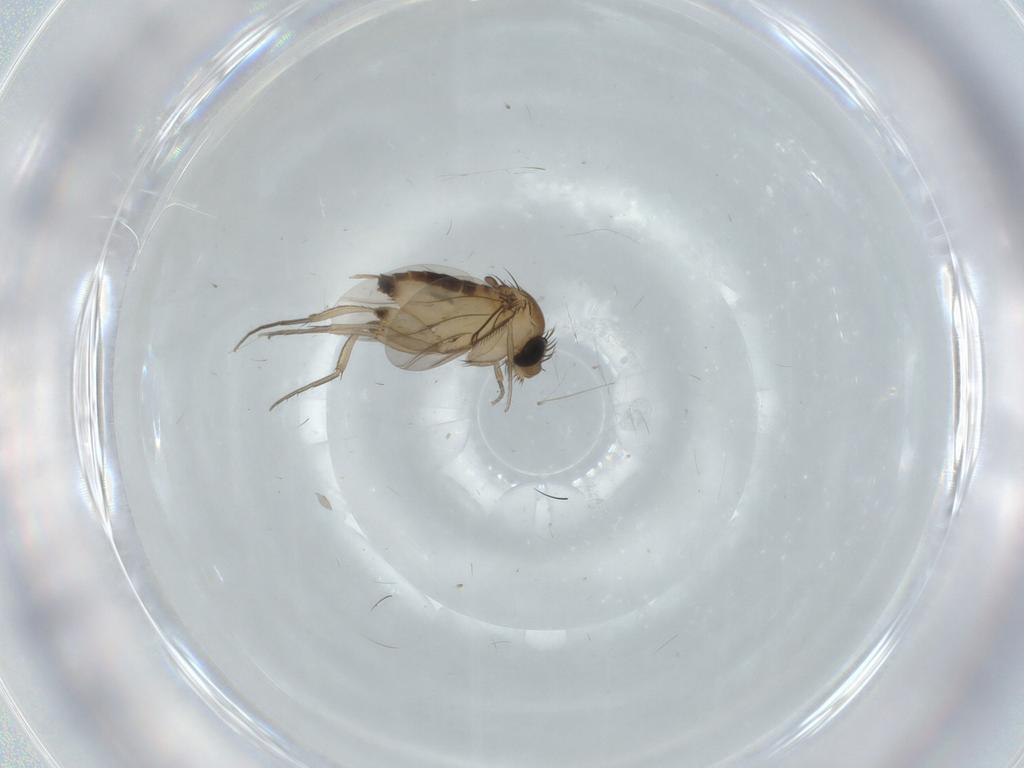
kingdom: Animalia
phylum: Arthropoda
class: Insecta
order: Diptera
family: Phoridae
